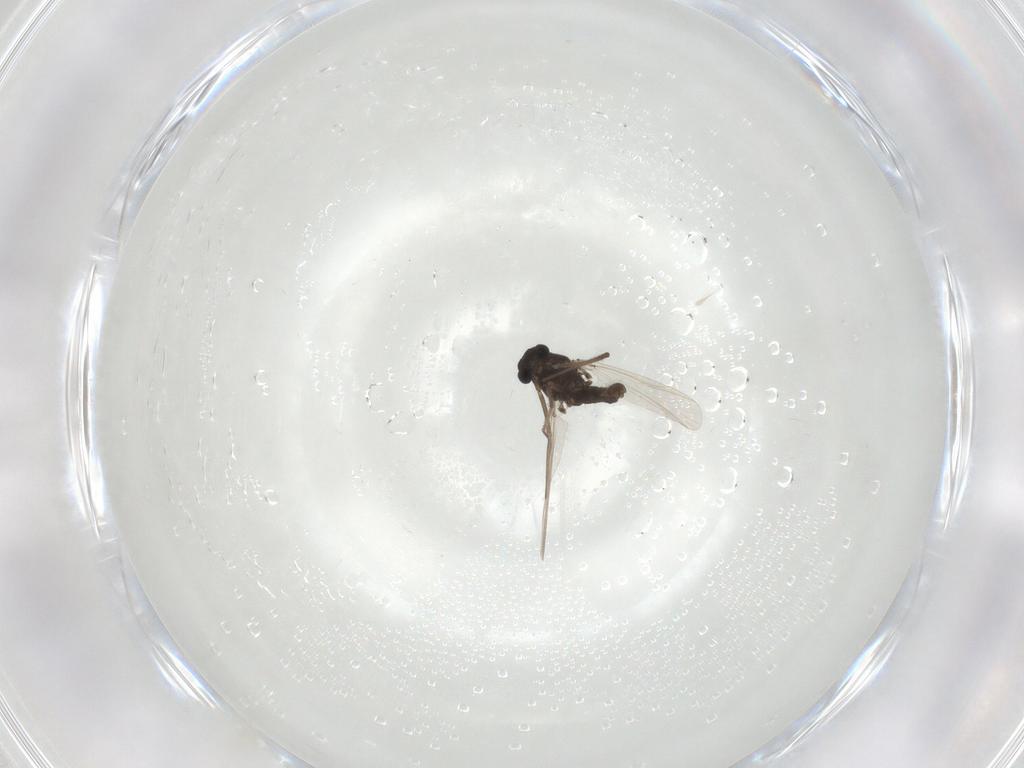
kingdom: Animalia
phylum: Arthropoda
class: Insecta
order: Diptera
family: Chironomidae
